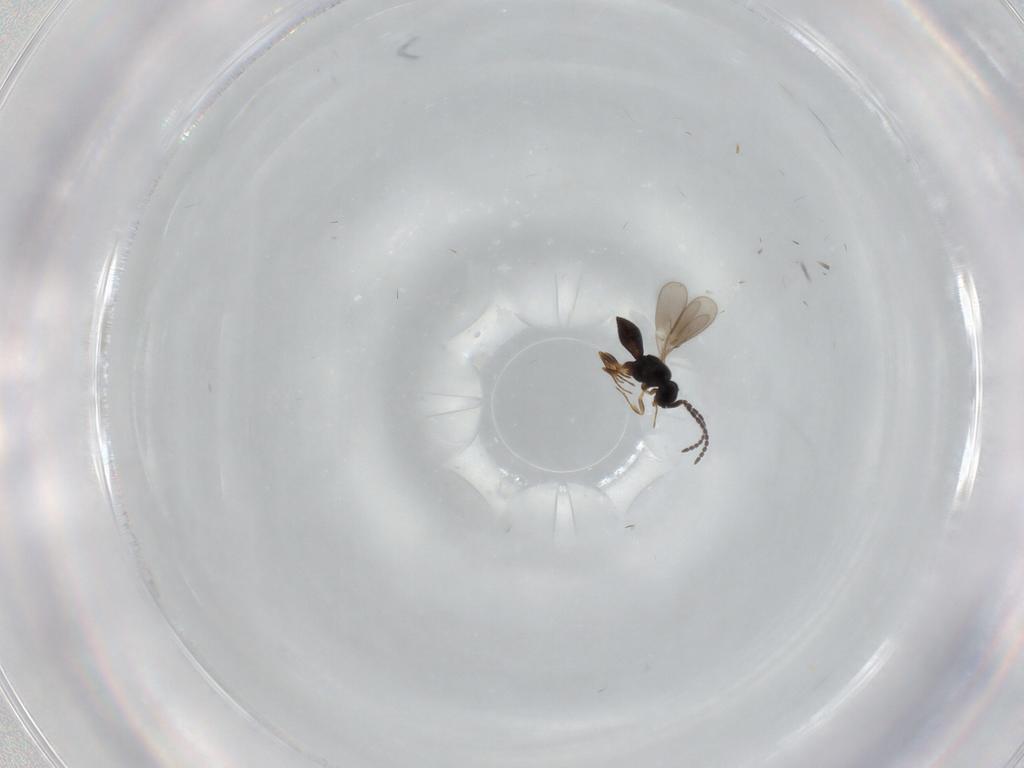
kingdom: Animalia
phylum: Arthropoda
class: Insecta
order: Hymenoptera
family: Scelionidae
